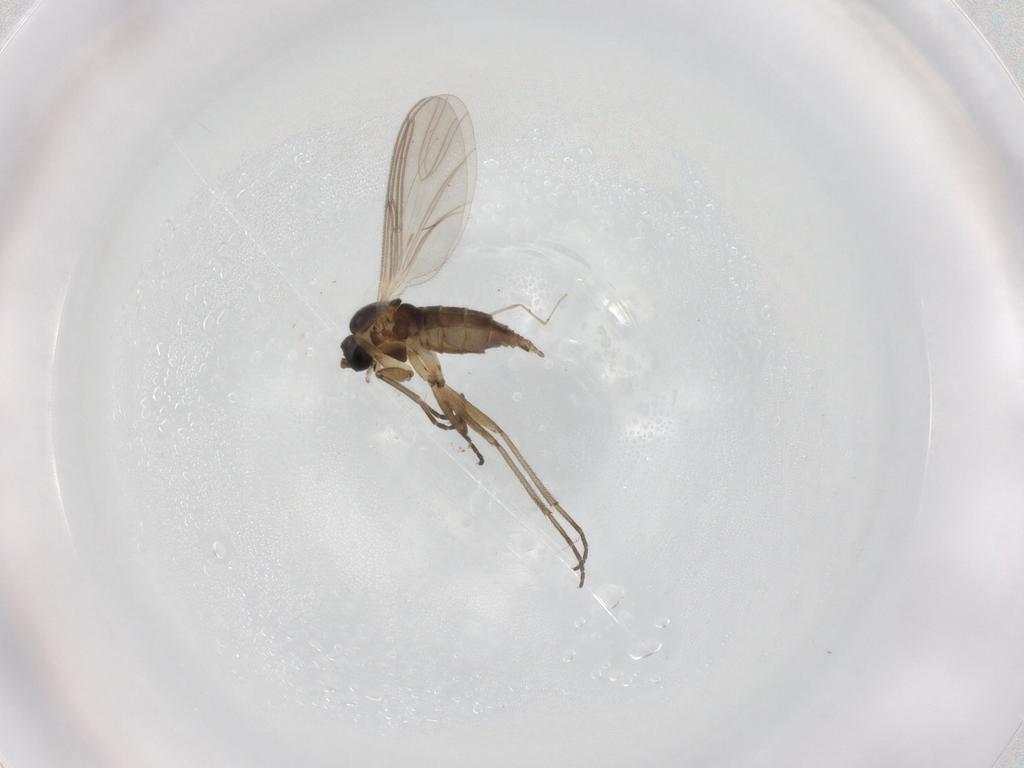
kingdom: Animalia
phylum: Arthropoda
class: Insecta
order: Diptera
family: Cecidomyiidae
